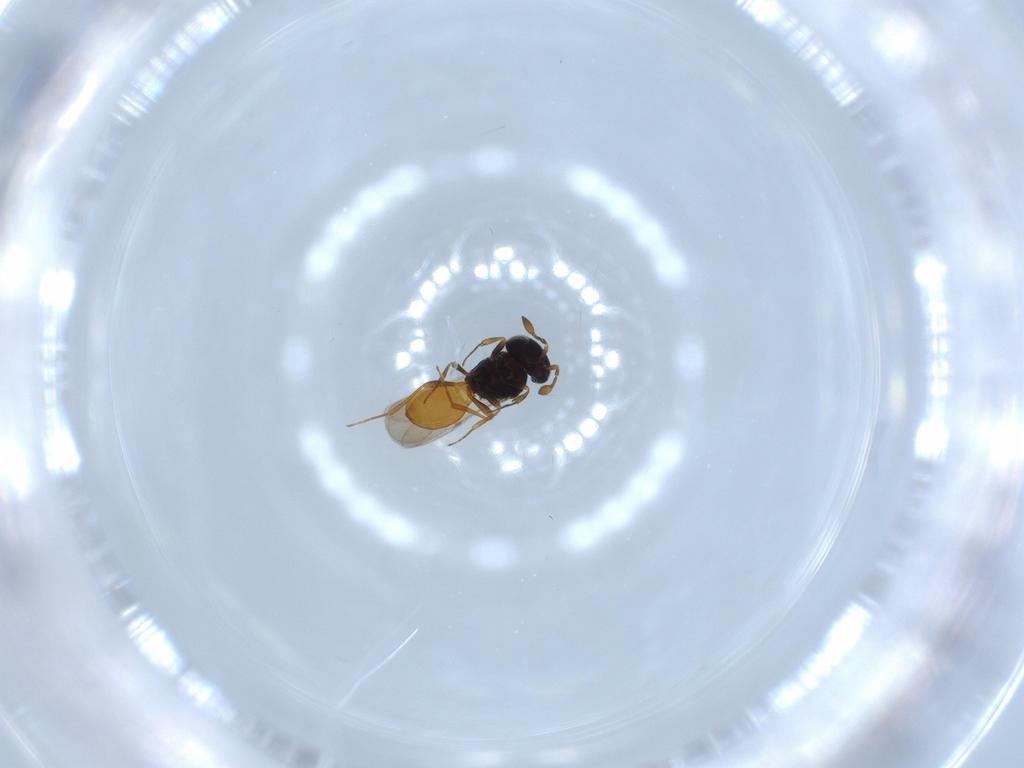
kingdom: Animalia
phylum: Arthropoda
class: Insecta
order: Hymenoptera
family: Scelionidae
